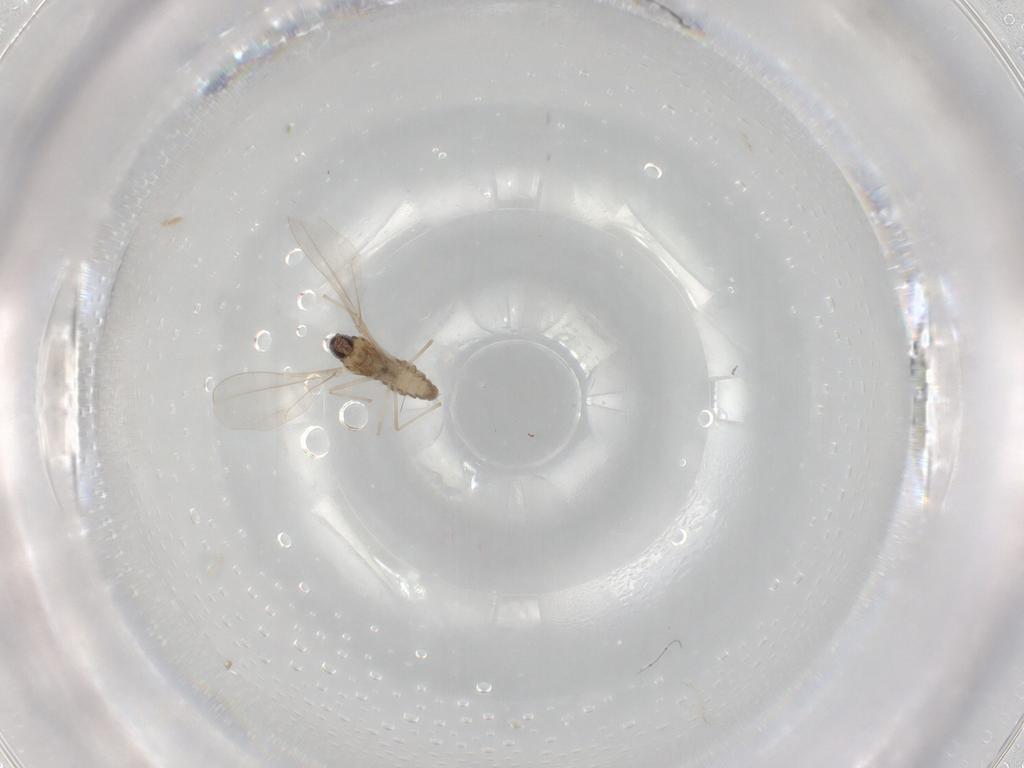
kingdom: Animalia
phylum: Arthropoda
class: Insecta
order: Diptera
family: Cecidomyiidae
